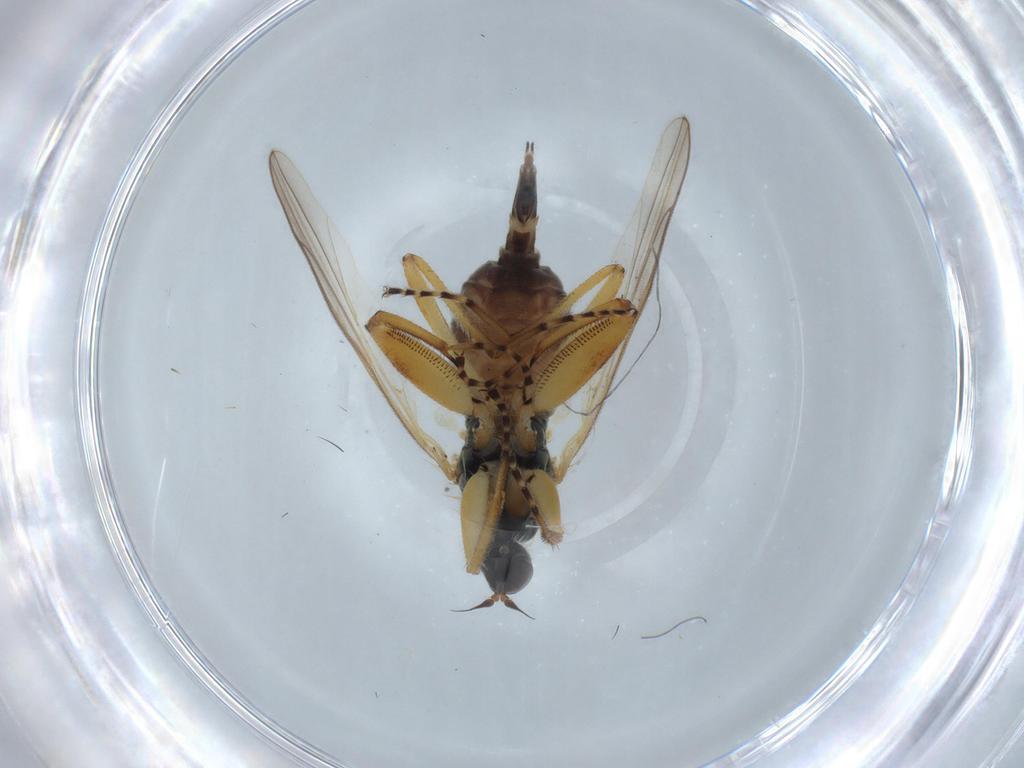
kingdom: Animalia
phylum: Arthropoda
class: Insecta
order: Diptera
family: Hybotidae
